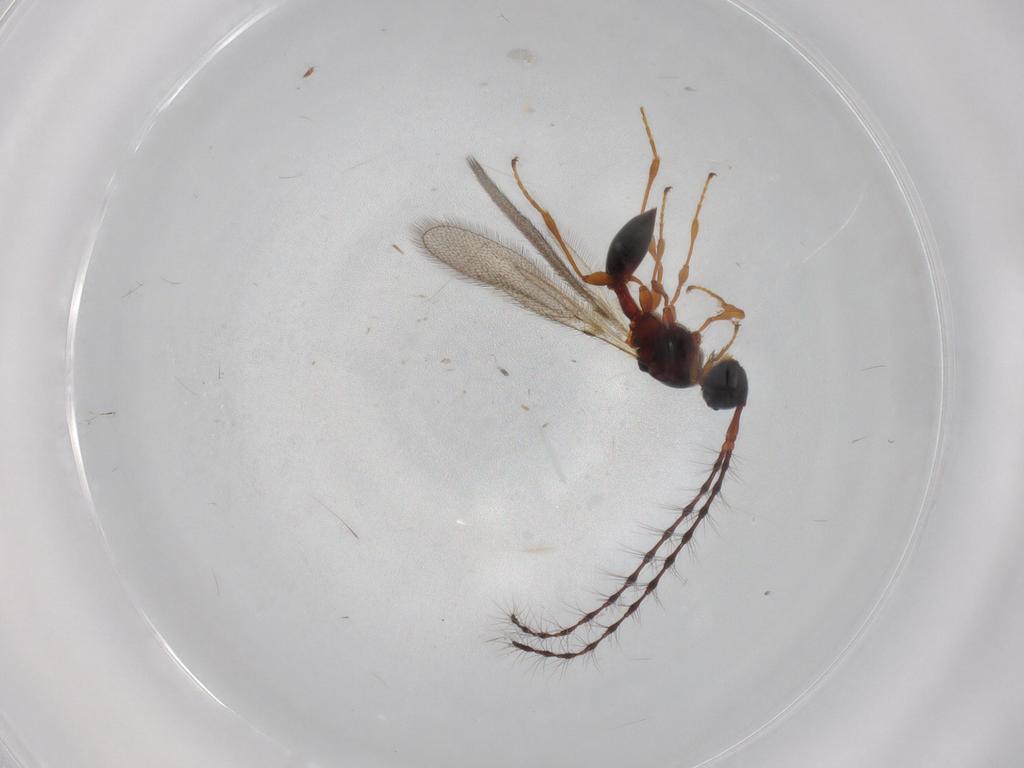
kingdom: Animalia
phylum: Arthropoda
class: Insecta
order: Hymenoptera
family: Diapriidae
